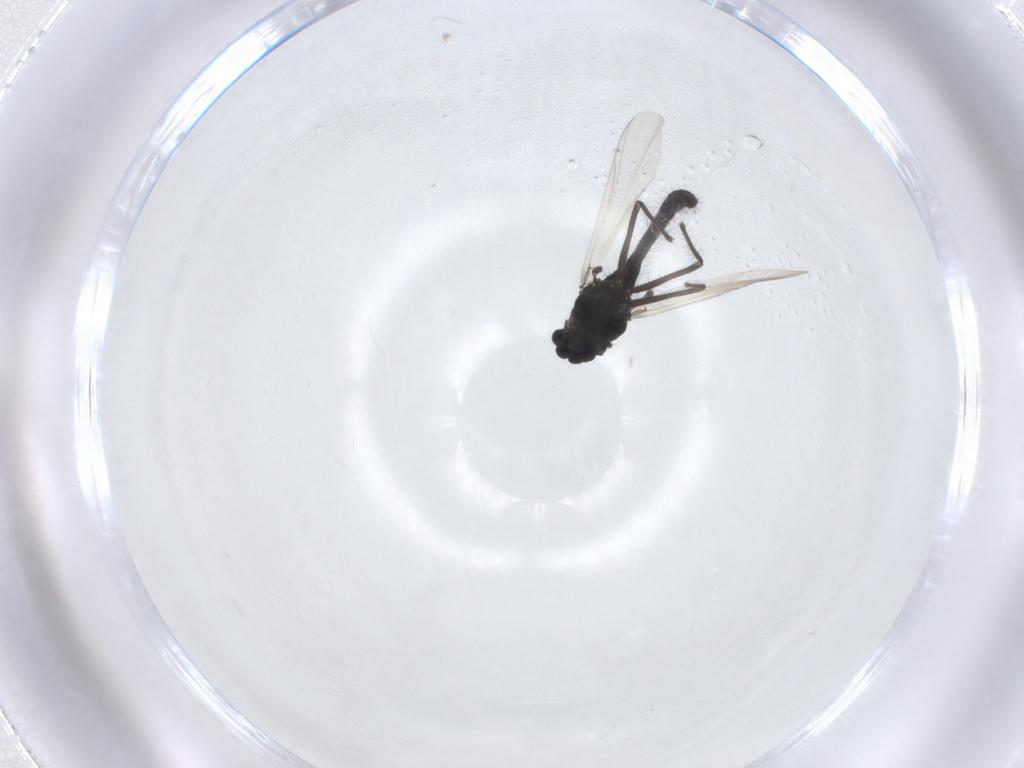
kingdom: Animalia
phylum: Arthropoda
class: Insecta
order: Diptera
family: Chironomidae
